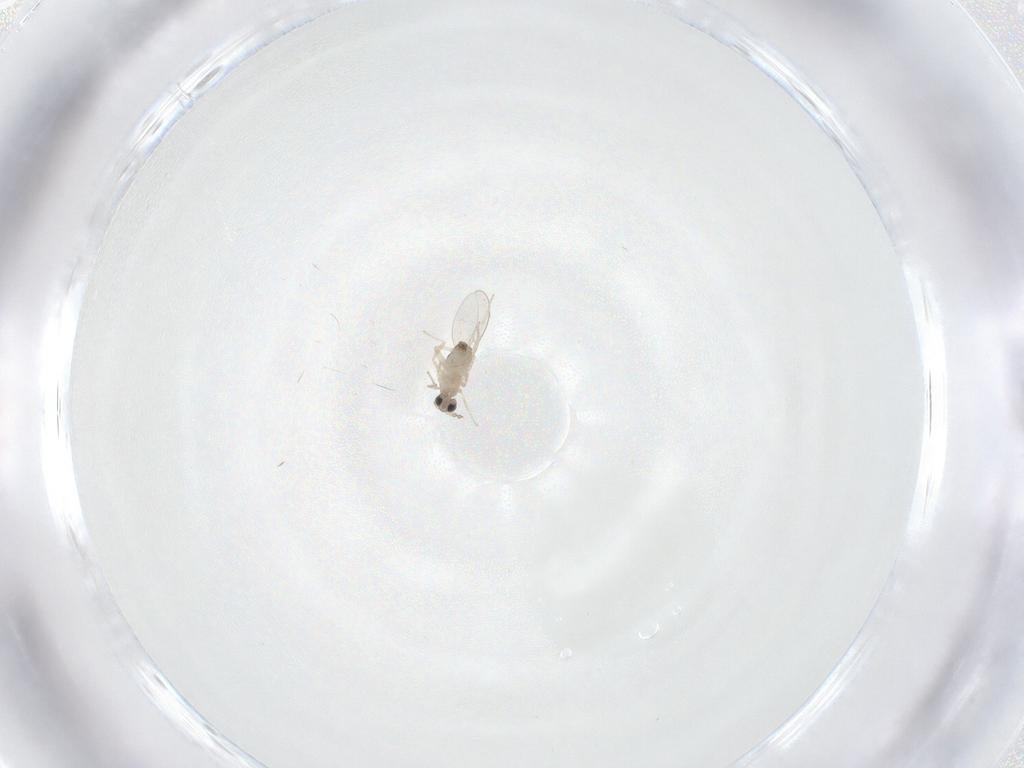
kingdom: Animalia
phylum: Arthropoda
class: Insecta
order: Diptera
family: Cecidomyiidae
